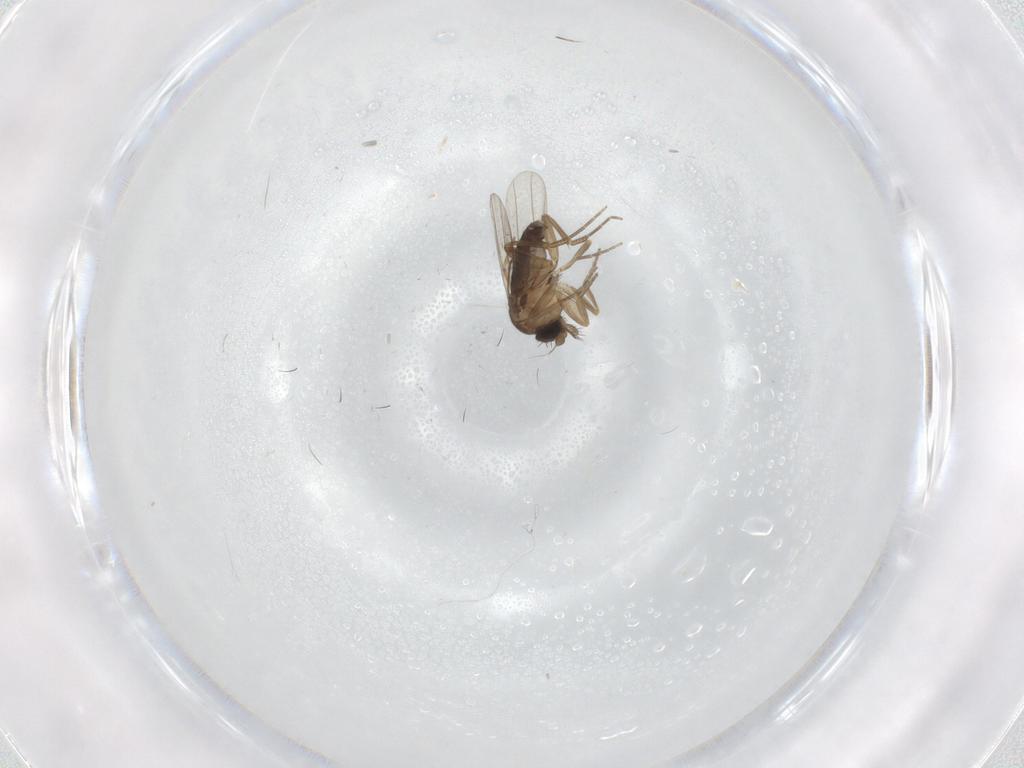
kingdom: Animalia
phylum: Arthropoda
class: Insecta
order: Diptera
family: Phoridae
